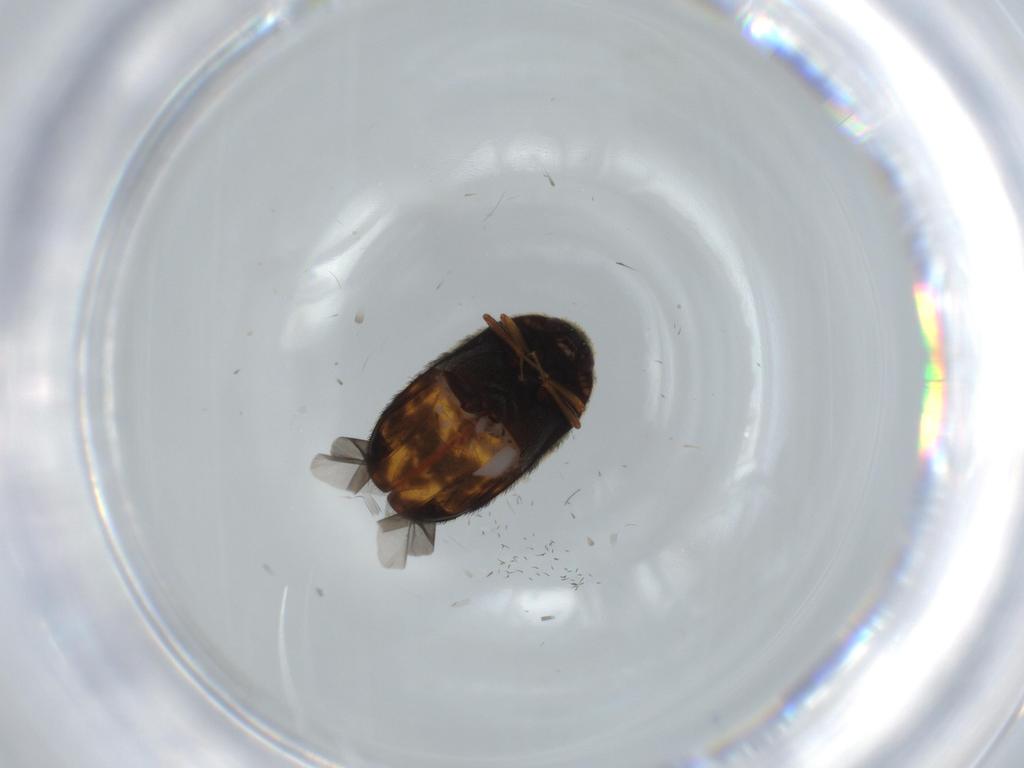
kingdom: Animalia
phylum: Arthropoda
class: Insecta
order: Coleoptera
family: Dermestidae
